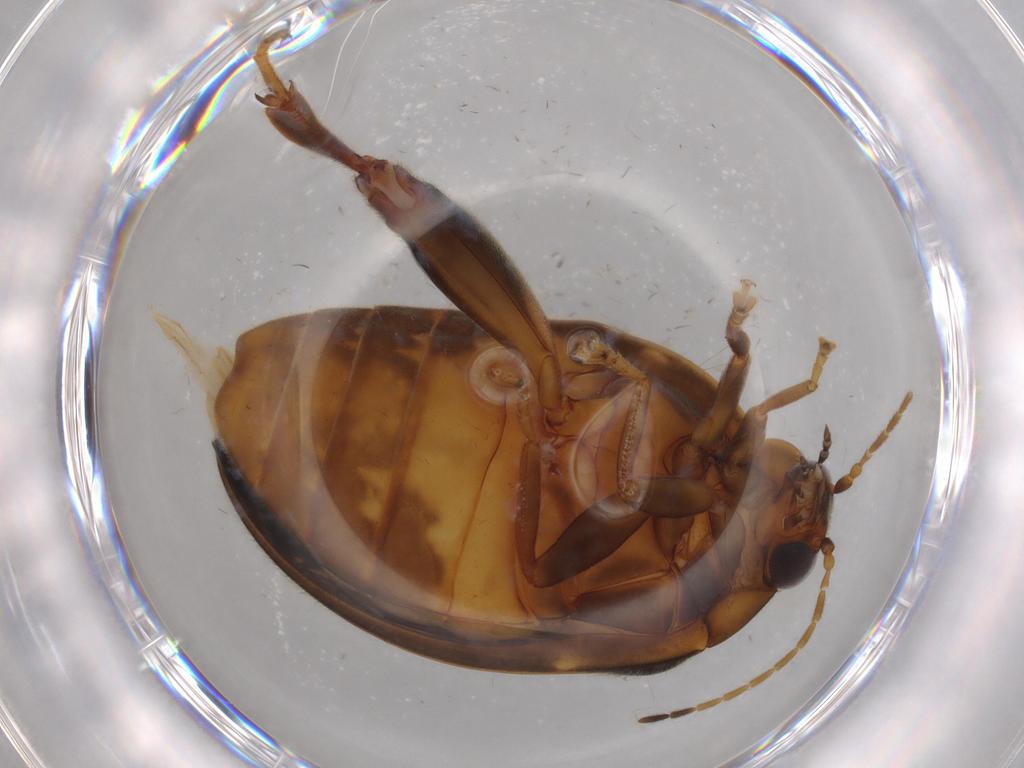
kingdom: Animalia
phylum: Arthropoda
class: Insecta
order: Coleoptera
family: Scirtidae
